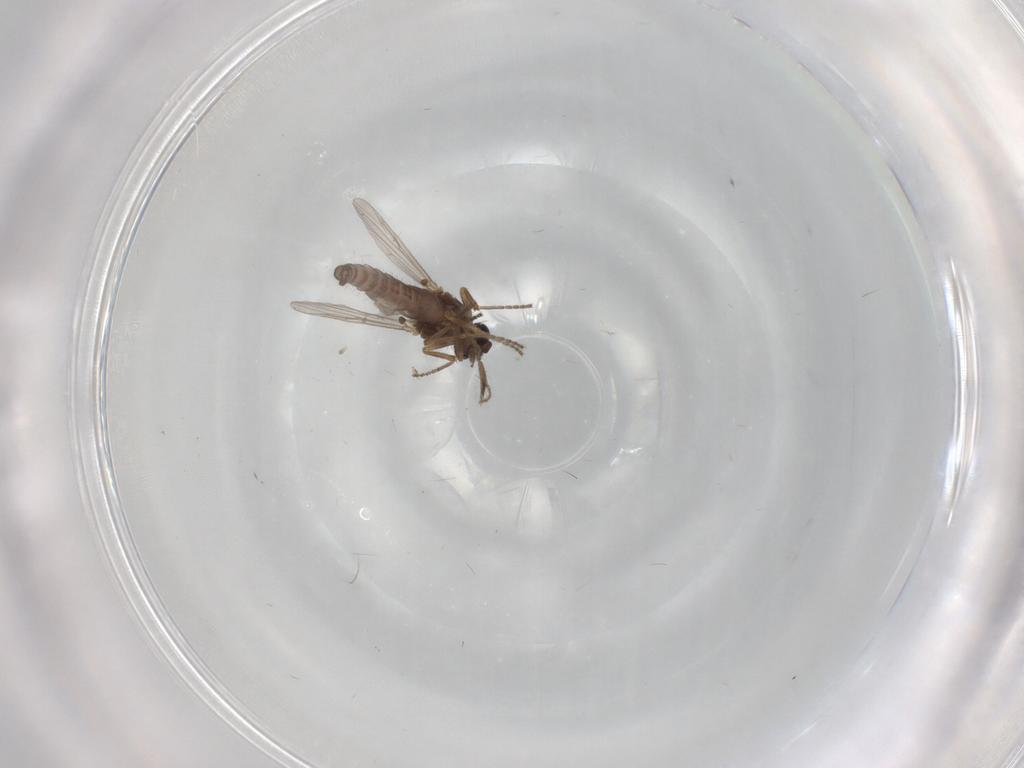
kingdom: Animalia
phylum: Arthropoda
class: Insecta
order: Diptera
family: Ceratopogonidae
